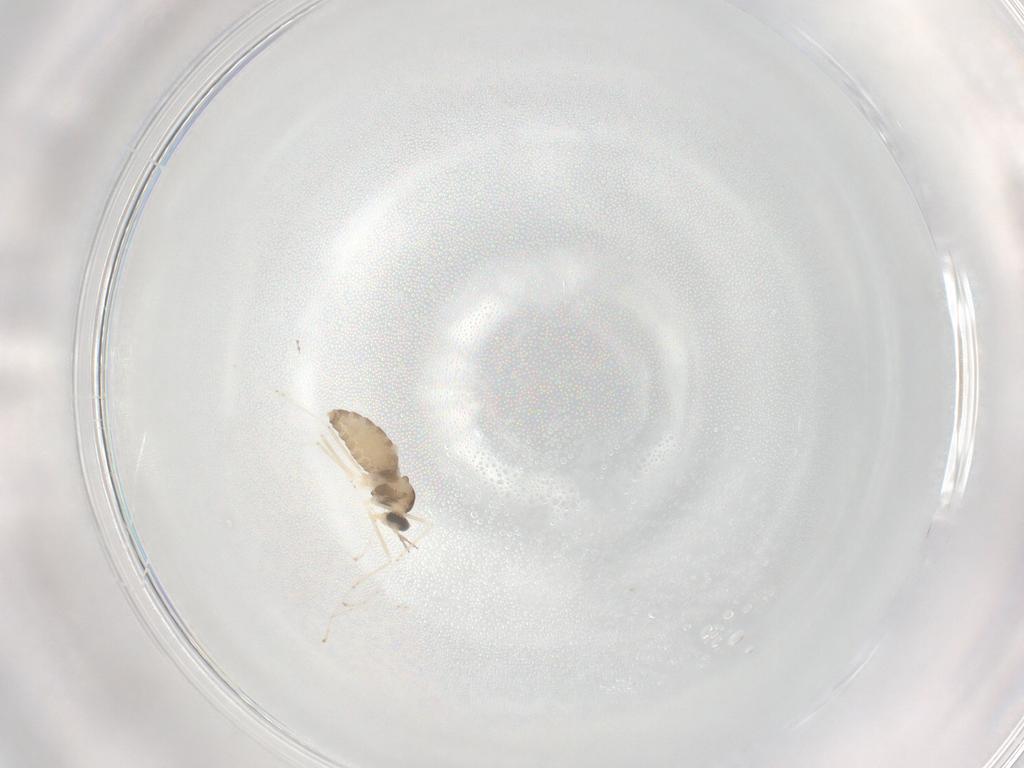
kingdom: Animalia
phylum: Arthropoda
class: Insecta
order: Diptera
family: Cecidomyiidae
